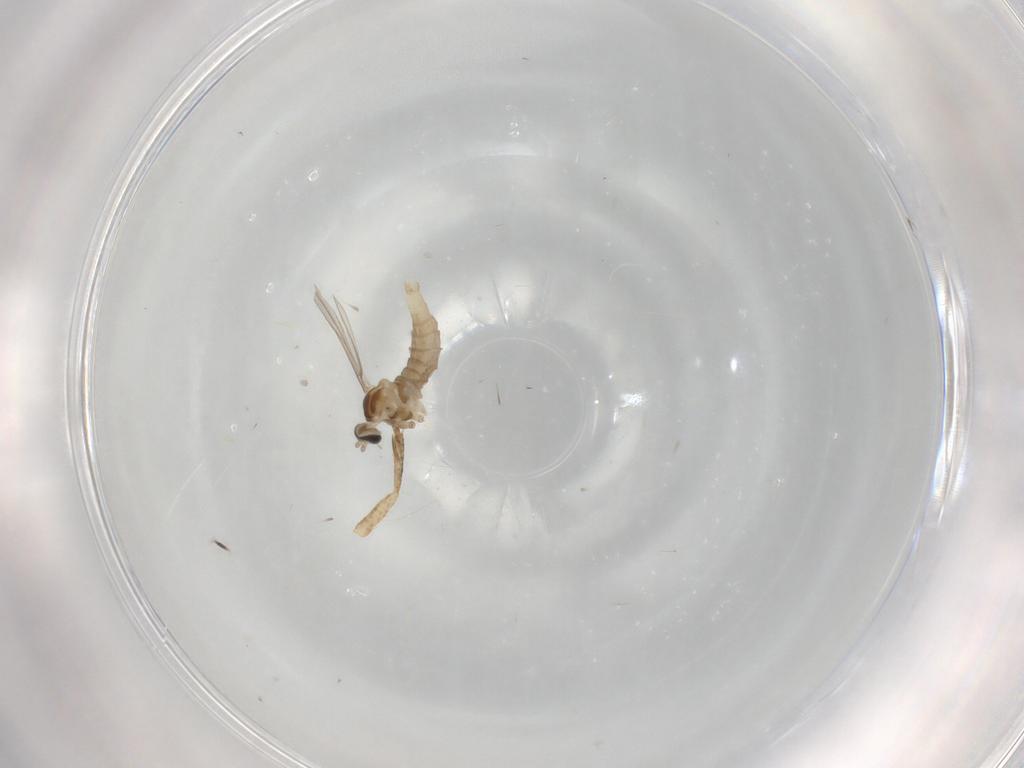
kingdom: Animalia
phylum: Arthropoda
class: Insecta
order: Diptera
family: Cecidomyiidae
